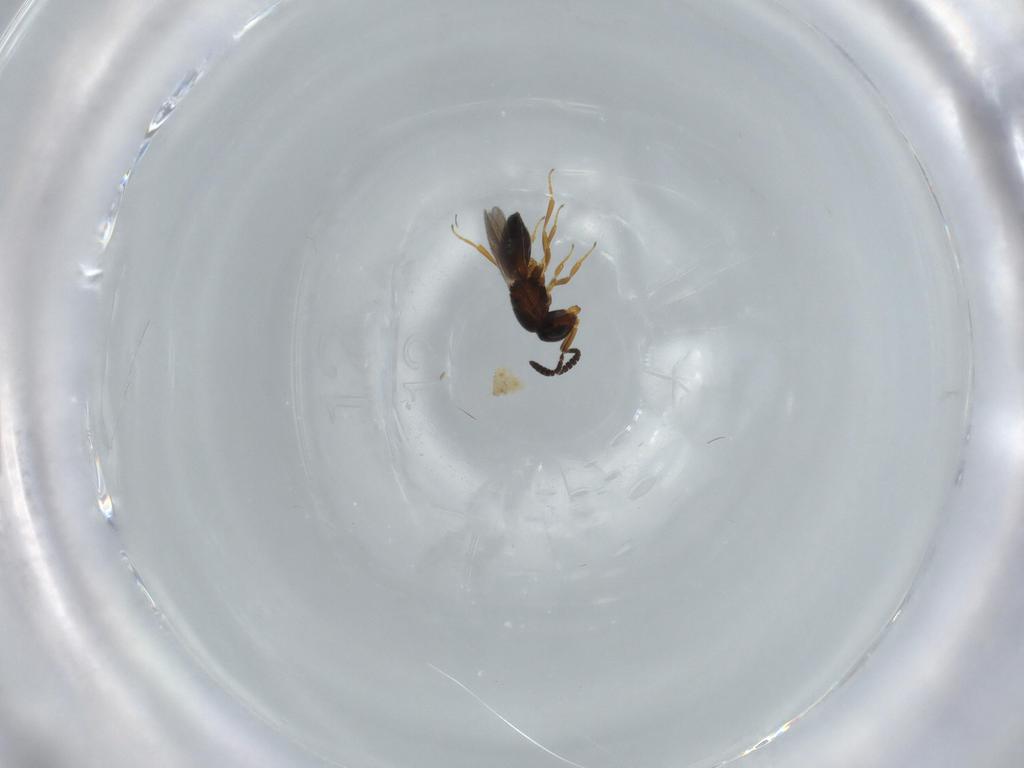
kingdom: Animalia
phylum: Arthropoda
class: Insecta
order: Hymenoptera
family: Scelionidae
